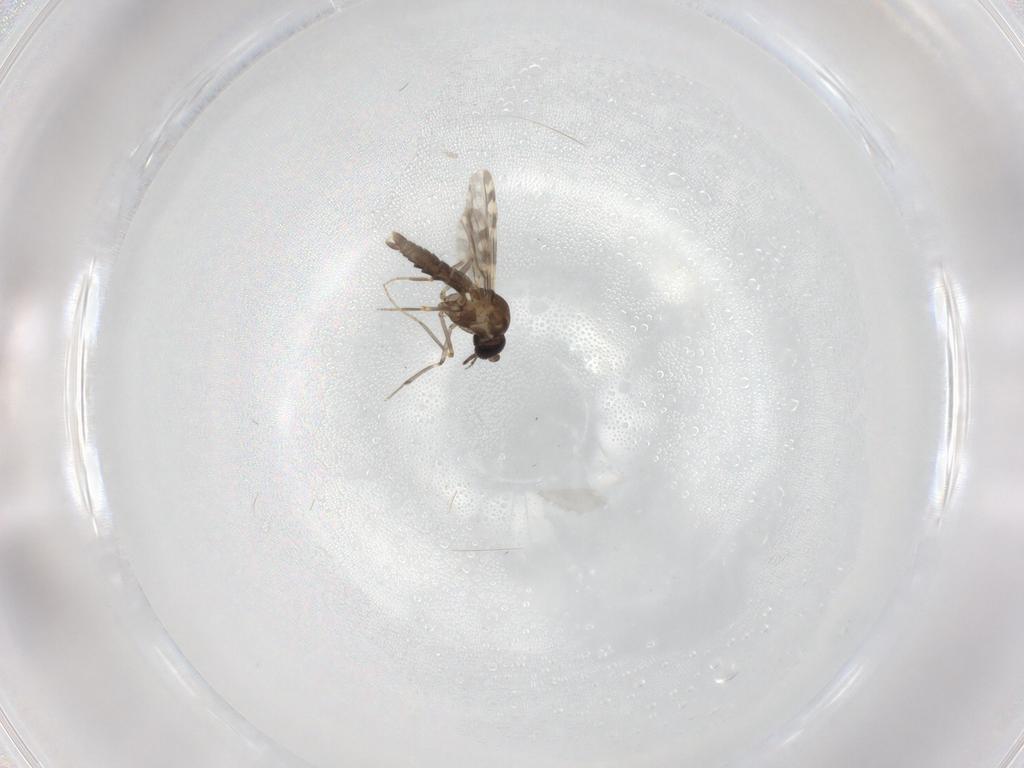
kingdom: Animalia
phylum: Arthropoda
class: Insecta
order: Diptera
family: Ceratopogonidae
